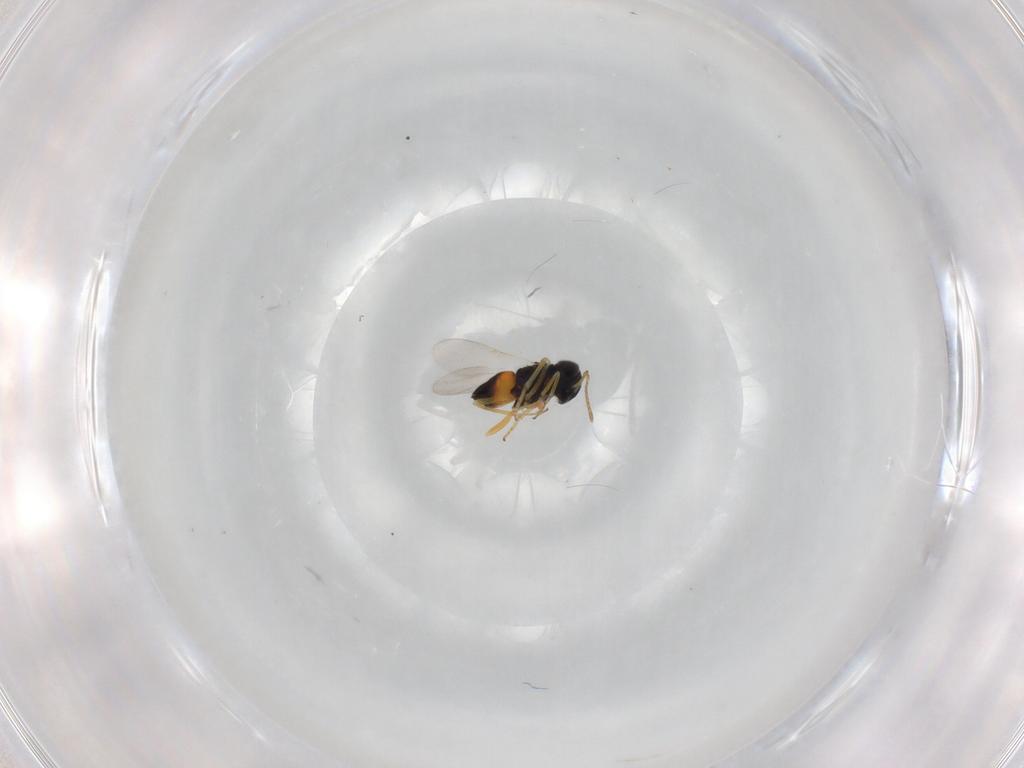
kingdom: Animalia
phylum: Arthropoda
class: Insecta
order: Hymenoptera
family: Encyrtidae
